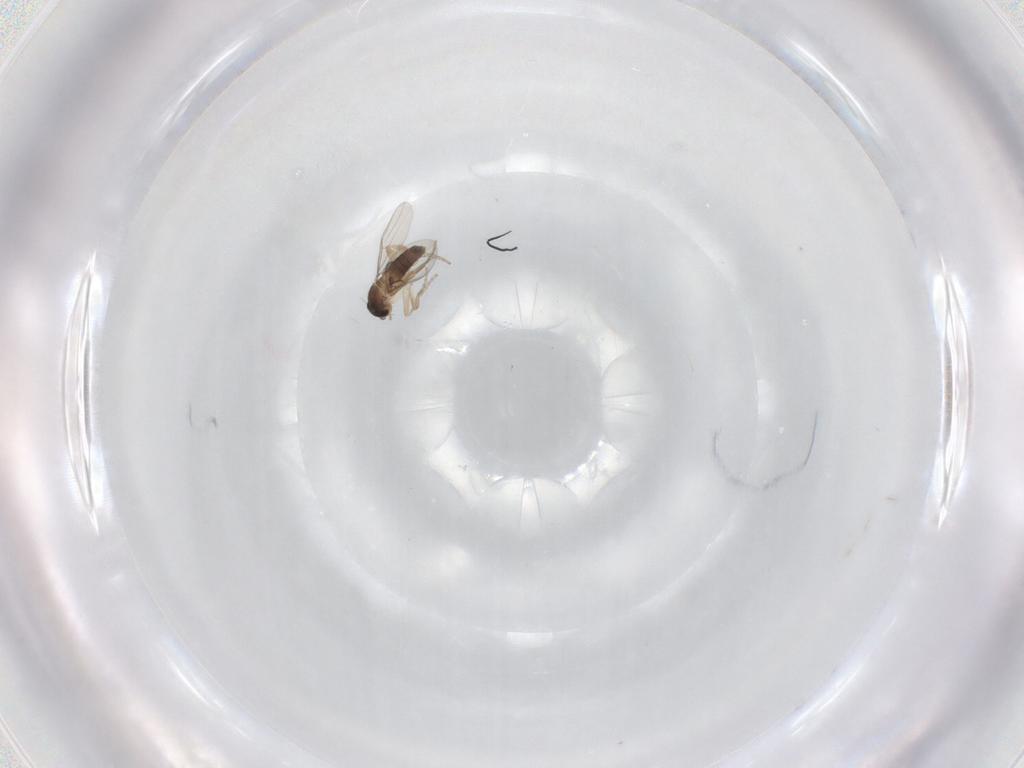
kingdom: Animalia
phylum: Arthropoda
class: Insecta
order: Diptera
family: Phoridae
